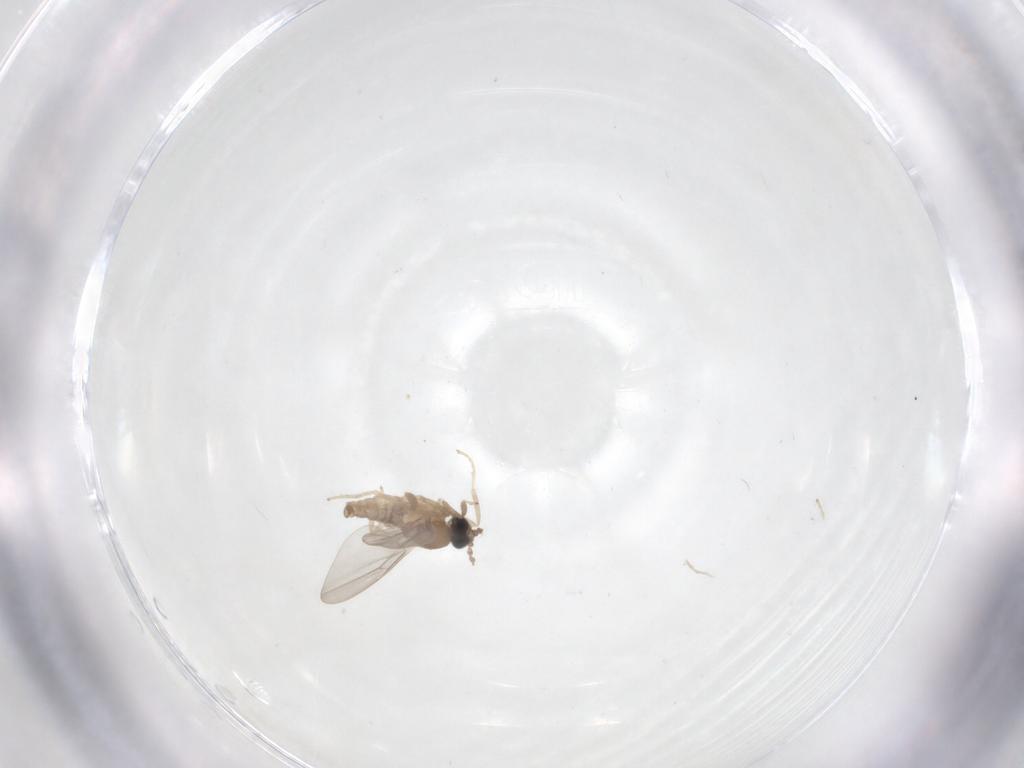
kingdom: Animalia
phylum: Arthropoda
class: Insecta
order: Diptera
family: Cecidomyiidae
